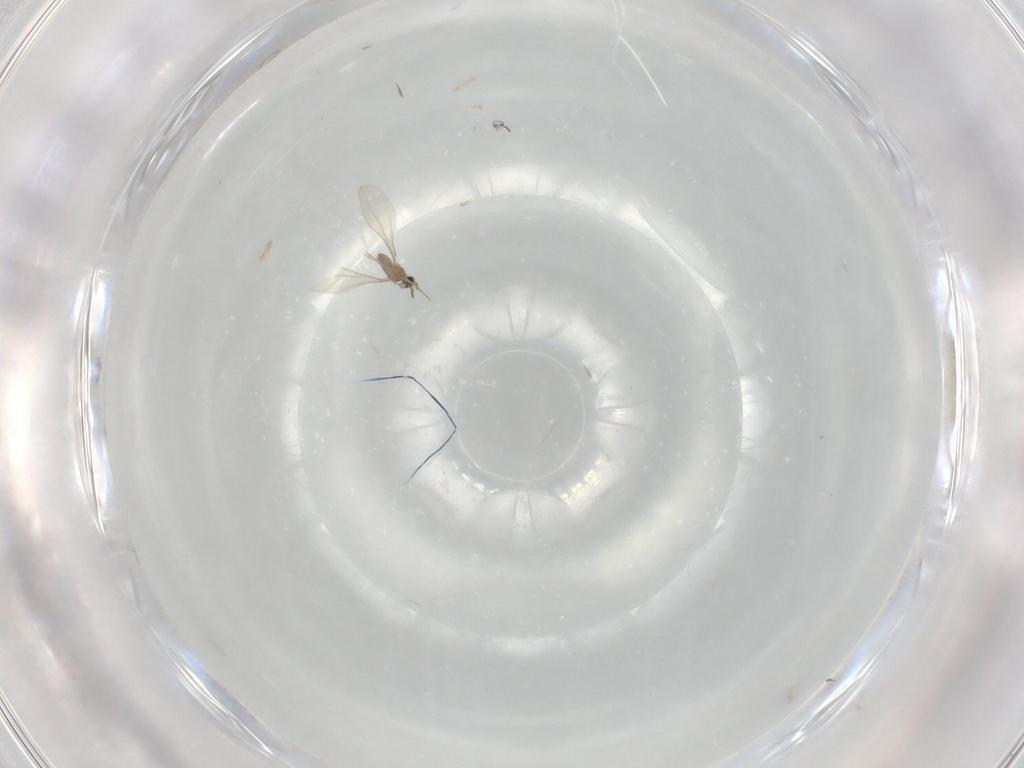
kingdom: Animalia
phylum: Arthropoda
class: Insecta
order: Diptera
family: Cecidomyiidae
